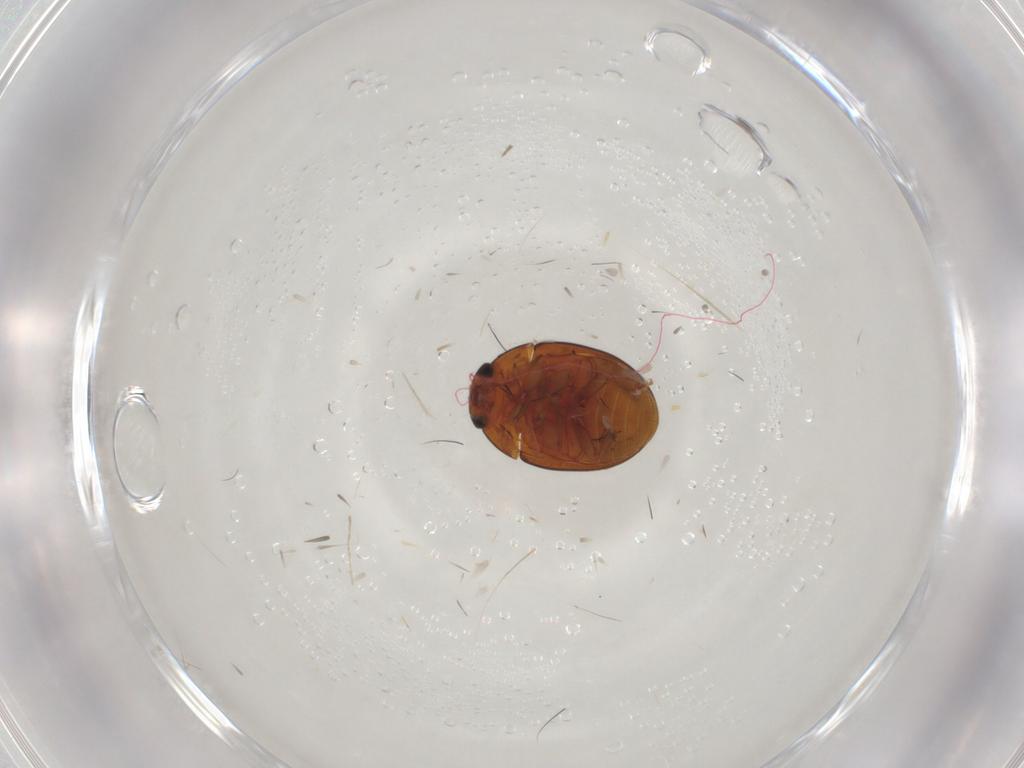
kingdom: Animalia
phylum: Arthropoda
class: Insecta
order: Coleoptera
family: Phalacridae
